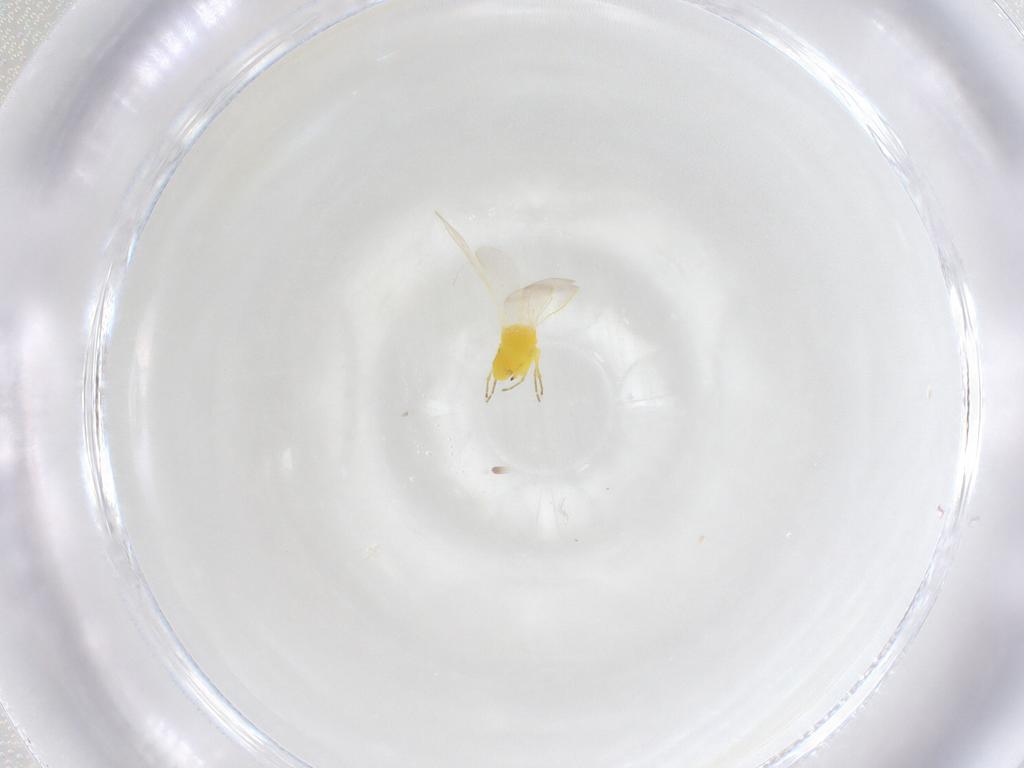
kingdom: Animalia
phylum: Arthropoda
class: Insecta
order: Hemiptera
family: Aleyrodidae
